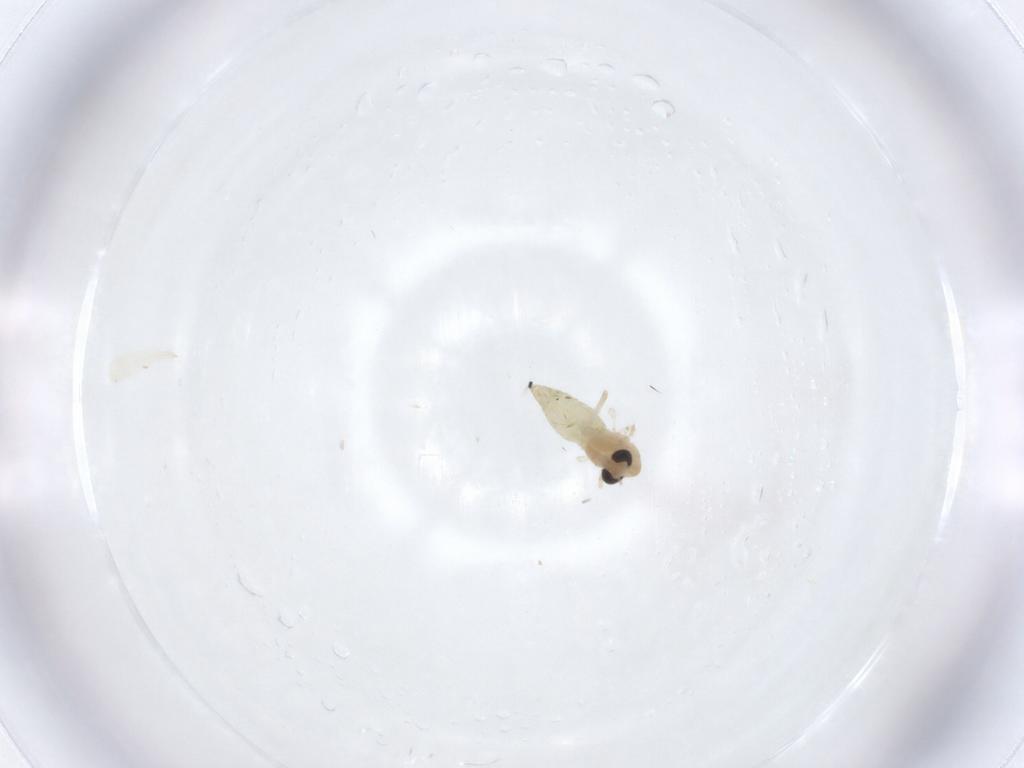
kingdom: Animalia
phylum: Arthropoda
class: Insecta
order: Diptera
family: Chironomidae
